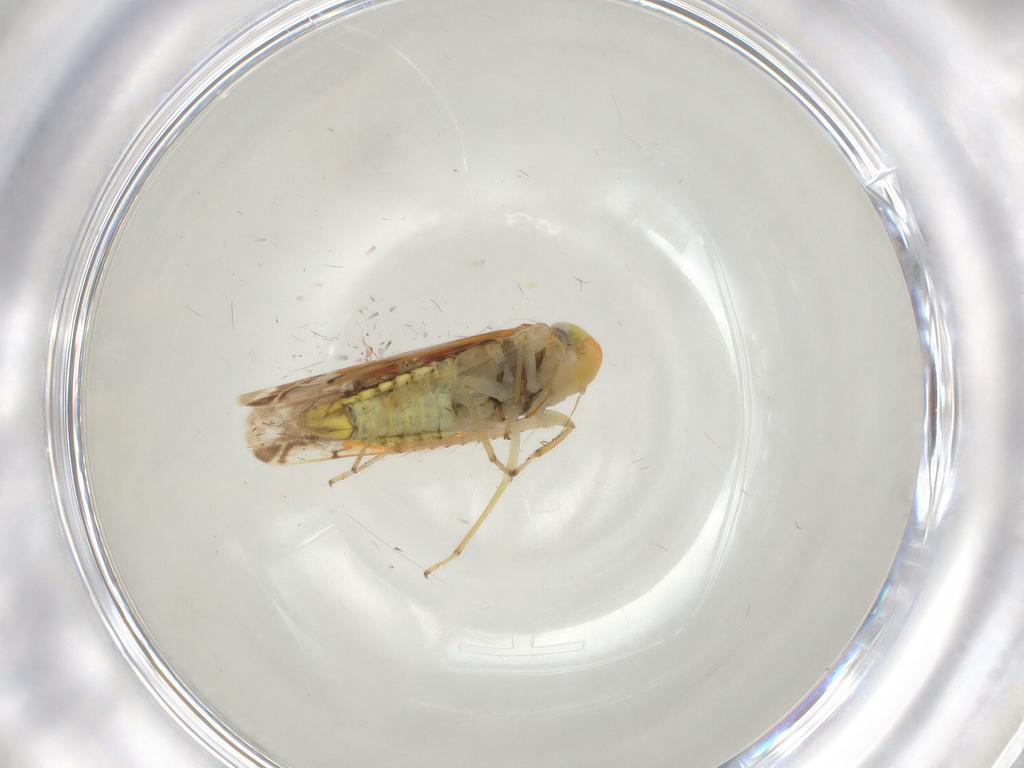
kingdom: Animalia
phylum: Arthropoda
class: Insecta
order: Hemiptera
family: Cicadellidae
